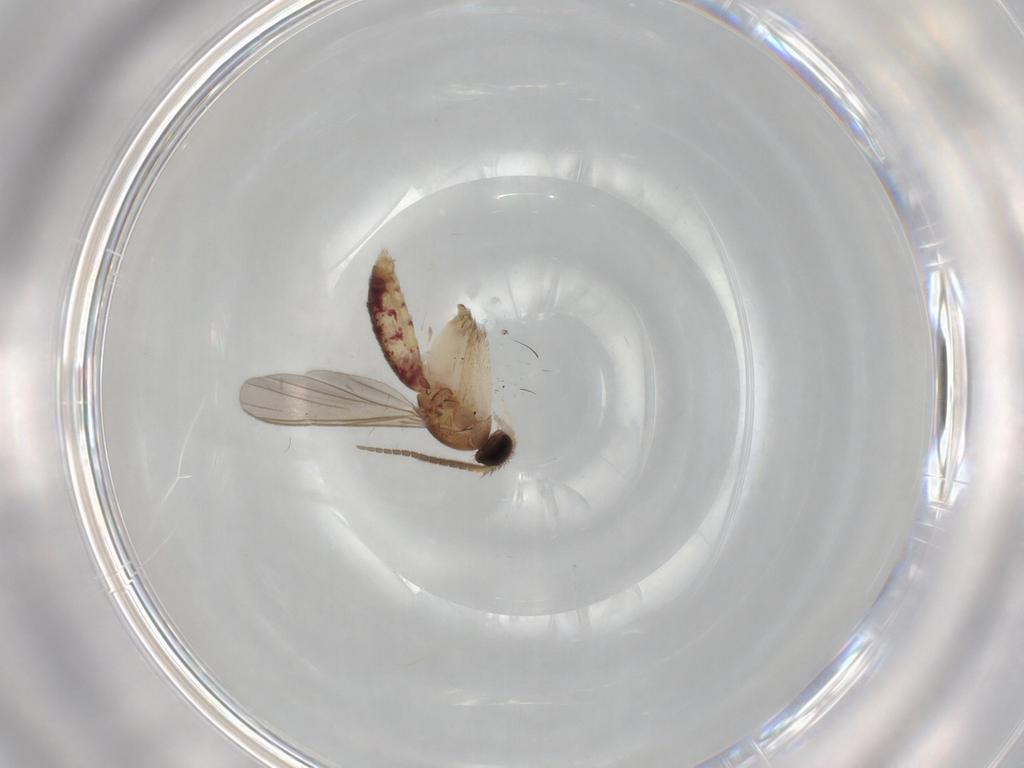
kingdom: Animalia
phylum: Arthropoda
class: Insecta
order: Diptera
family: Mycetophilidae
